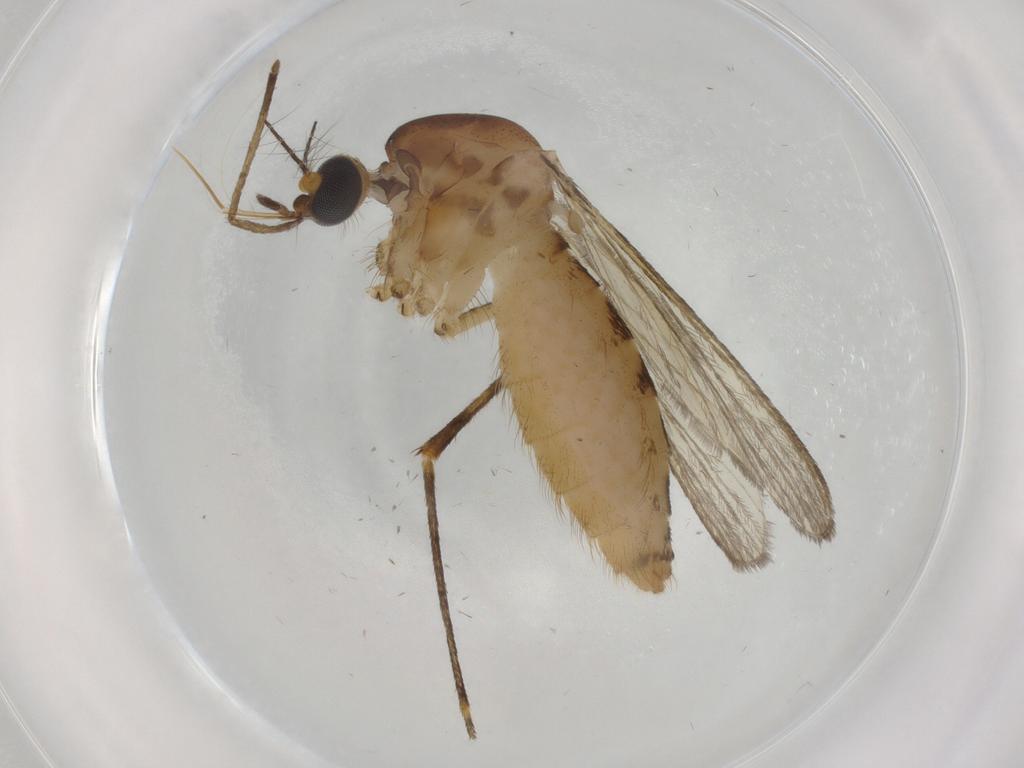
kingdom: Animalia
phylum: Arthropoda
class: Insecta
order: Diptera
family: Culicidae
